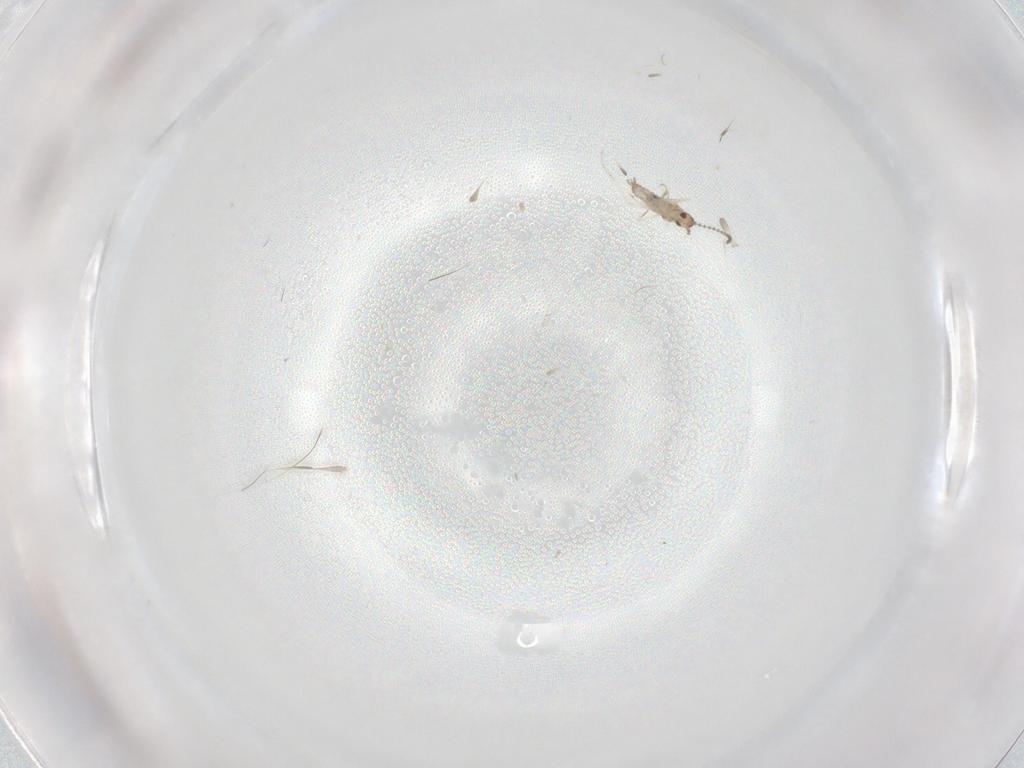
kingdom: Animalia
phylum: Arthropoda
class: Insecta
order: Diptera
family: Cecidomyiidae
